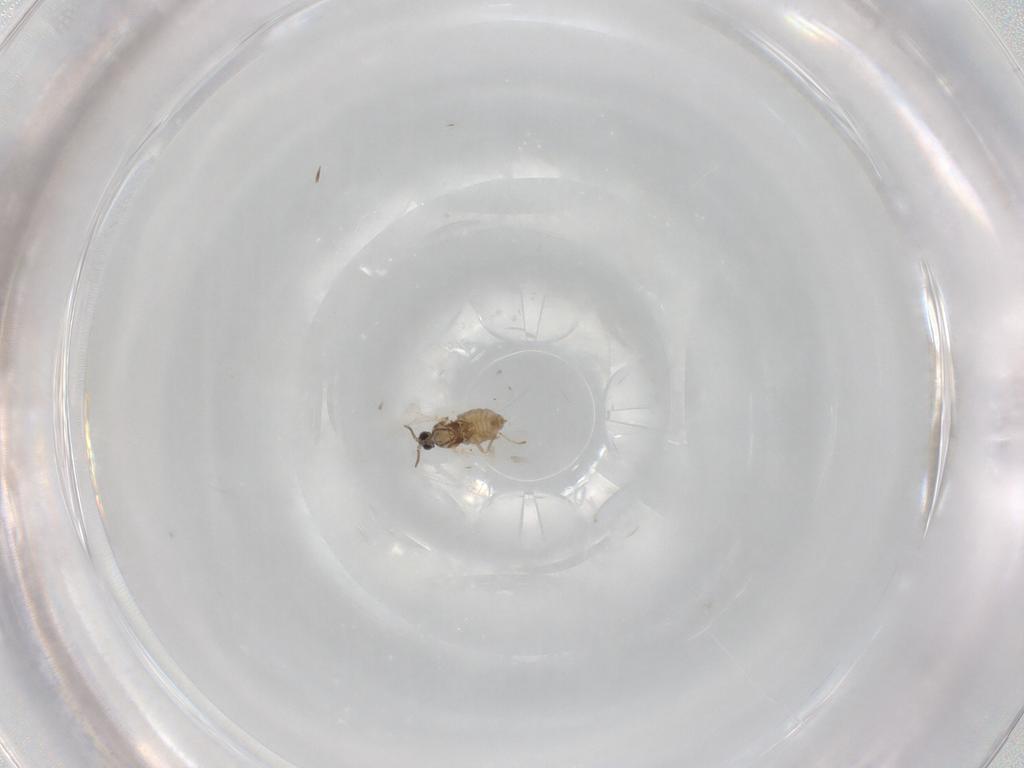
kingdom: Animalia
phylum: Arthropoda
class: Insecta
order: Diptera
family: Cecidomyiidae
